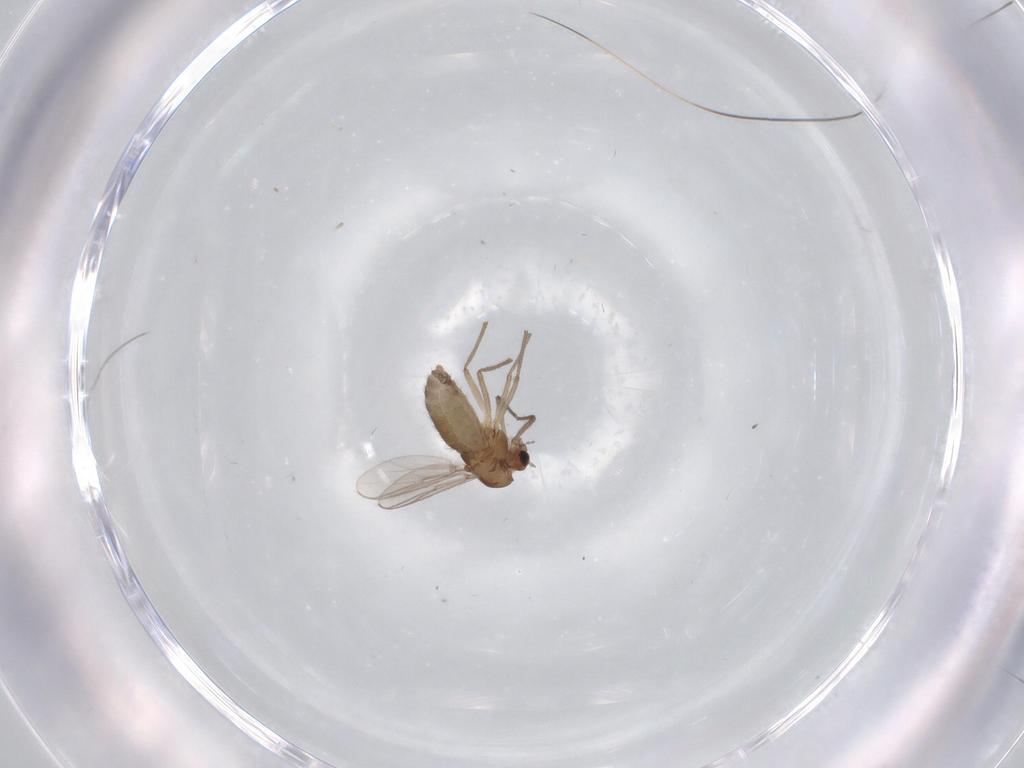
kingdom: Animalia
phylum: Arthropoda
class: Insecta
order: Diptera
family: Chironomidae
